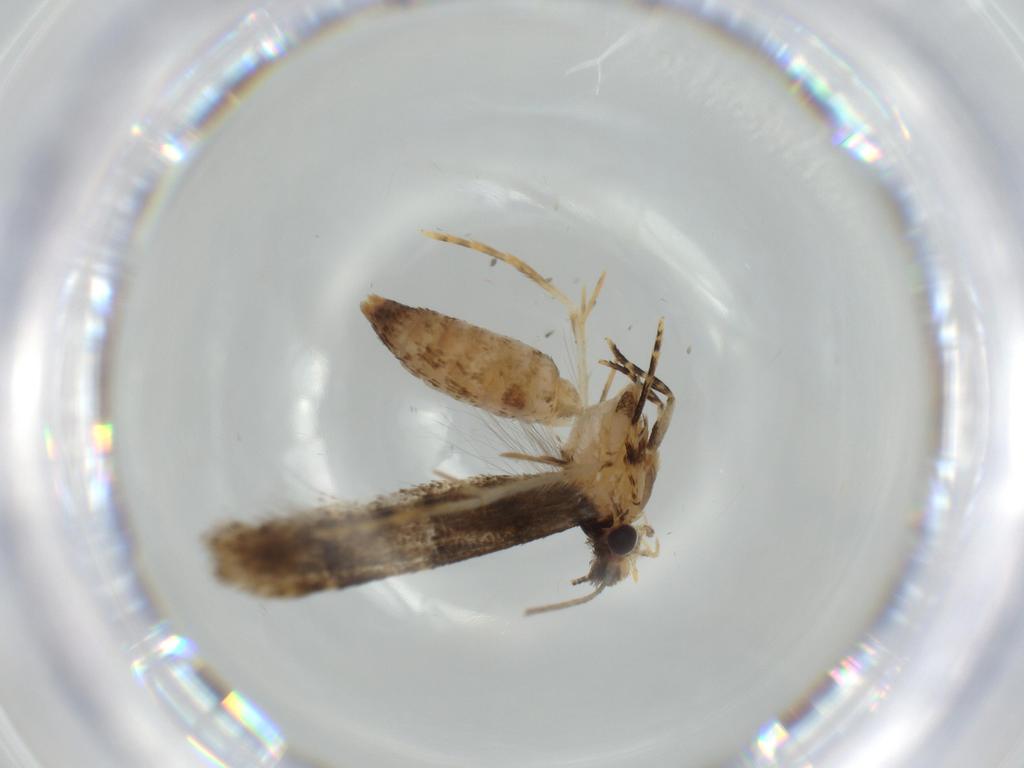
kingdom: Animalia
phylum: Arthropoda
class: Insecta
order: Lepidoptera
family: Tineidae
